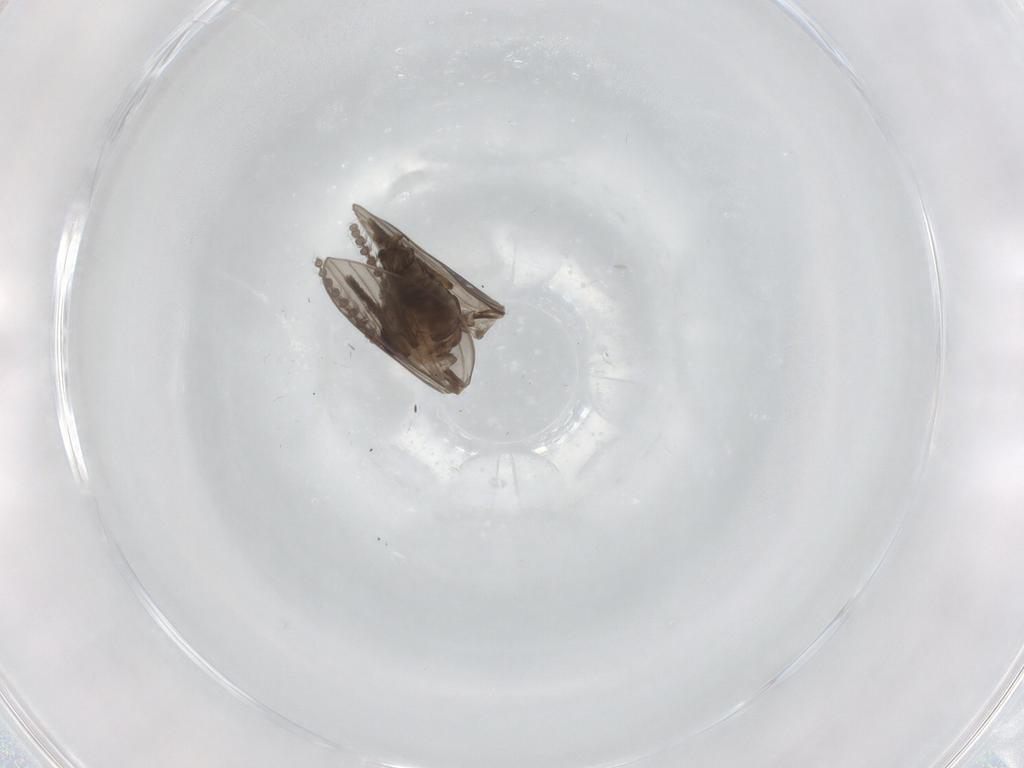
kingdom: Animalia
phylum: Arthropoda
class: Insecta
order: Diptera
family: Psychodidae
